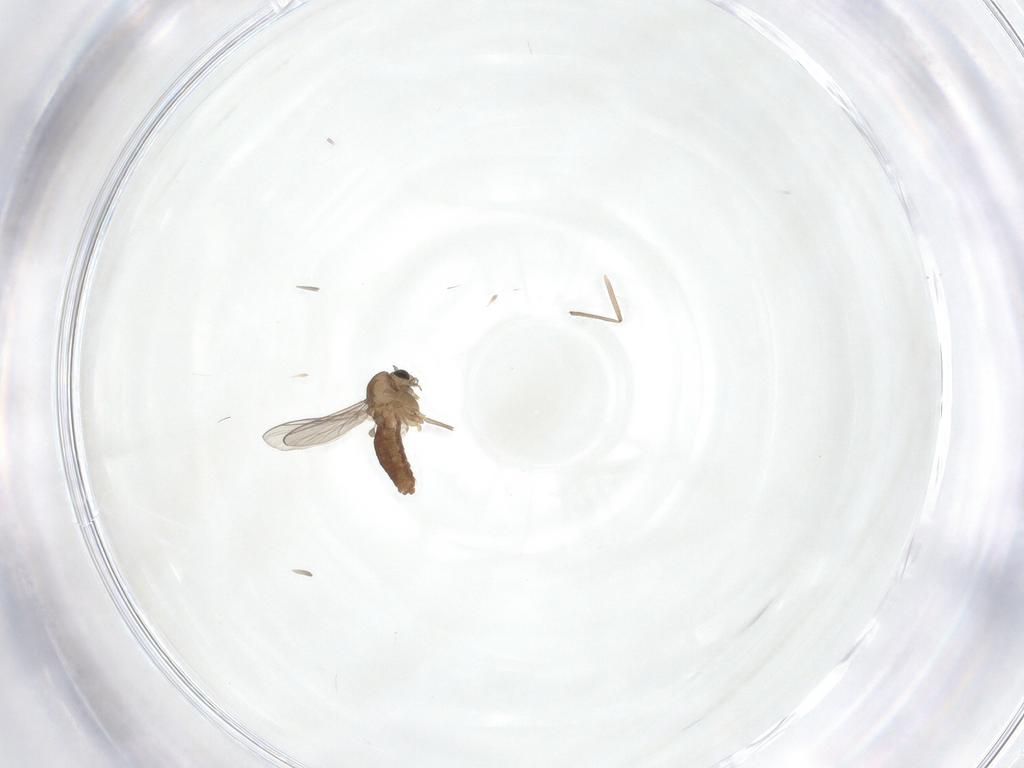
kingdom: Animalia
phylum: Arthropoda
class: Insecta
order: Diptera
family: Chironomidae
